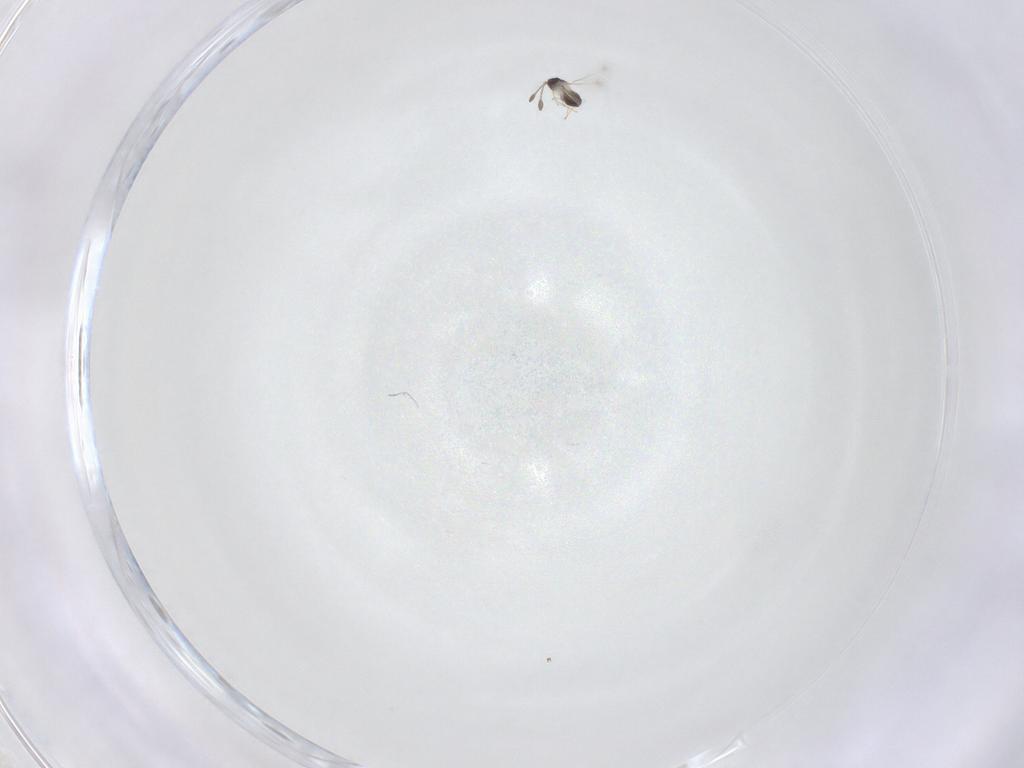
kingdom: Animalia
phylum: Arthropoda
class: Insecta
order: Hymenoptera
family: Mymaridae
